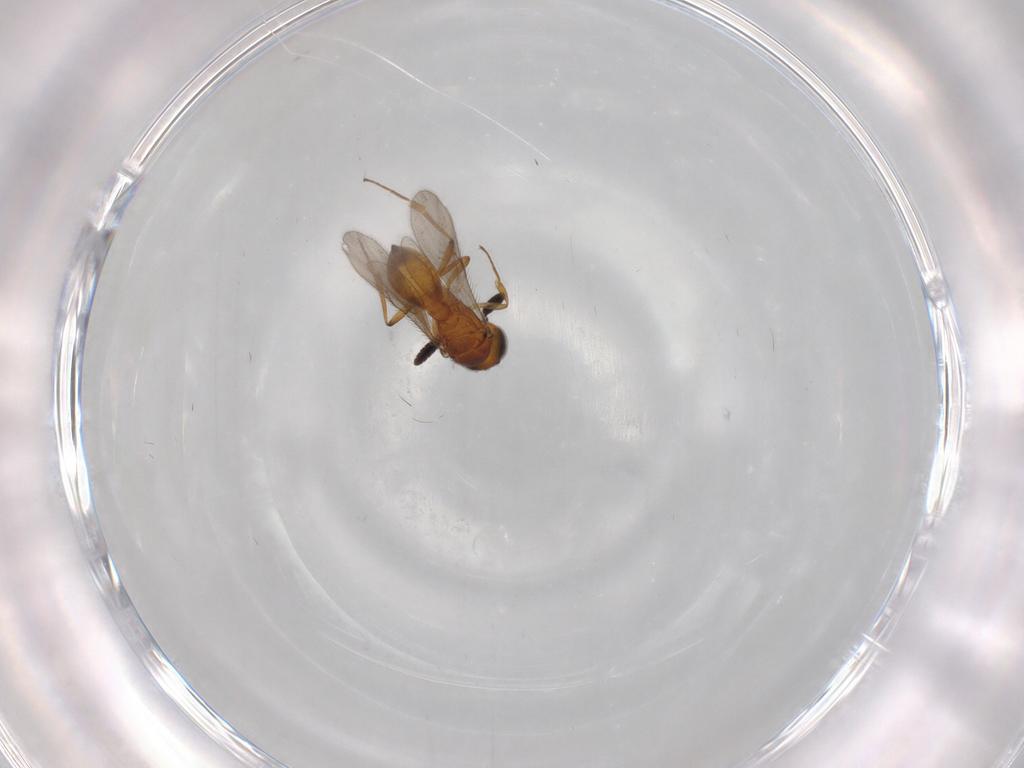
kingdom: Animalia
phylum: Arthropoda
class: Insecta
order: Hymenoptera
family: Scelionidae
